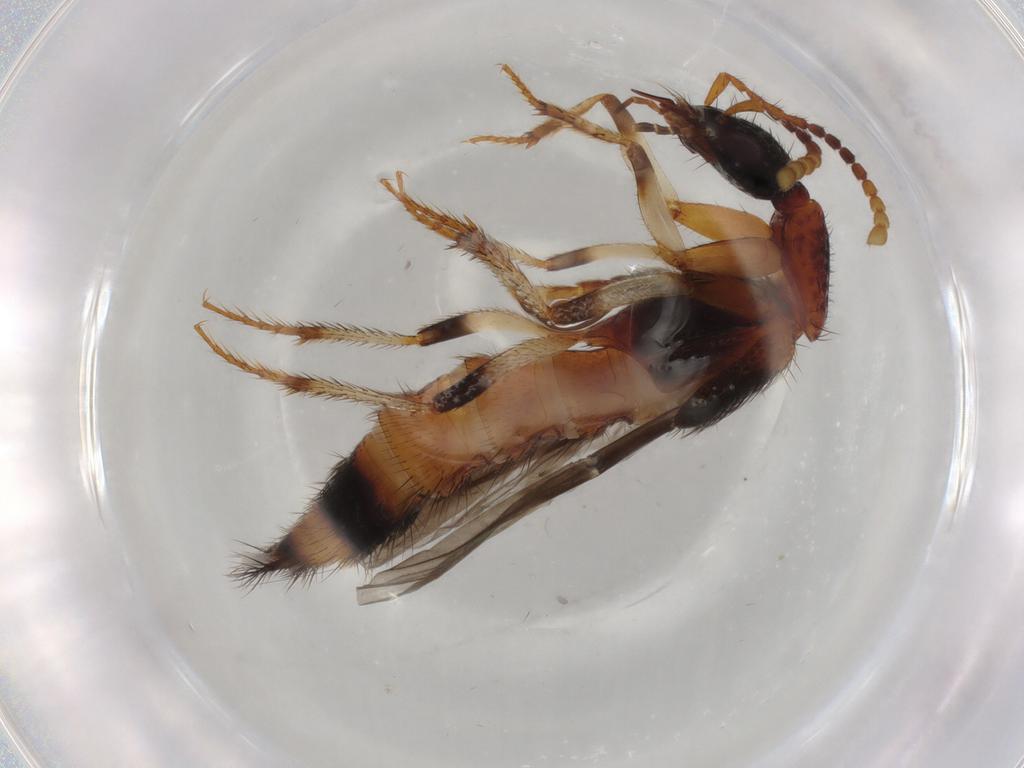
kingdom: Animalia
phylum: Arthropoda
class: Insecta
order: Coleoptera
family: Staphylinidae
